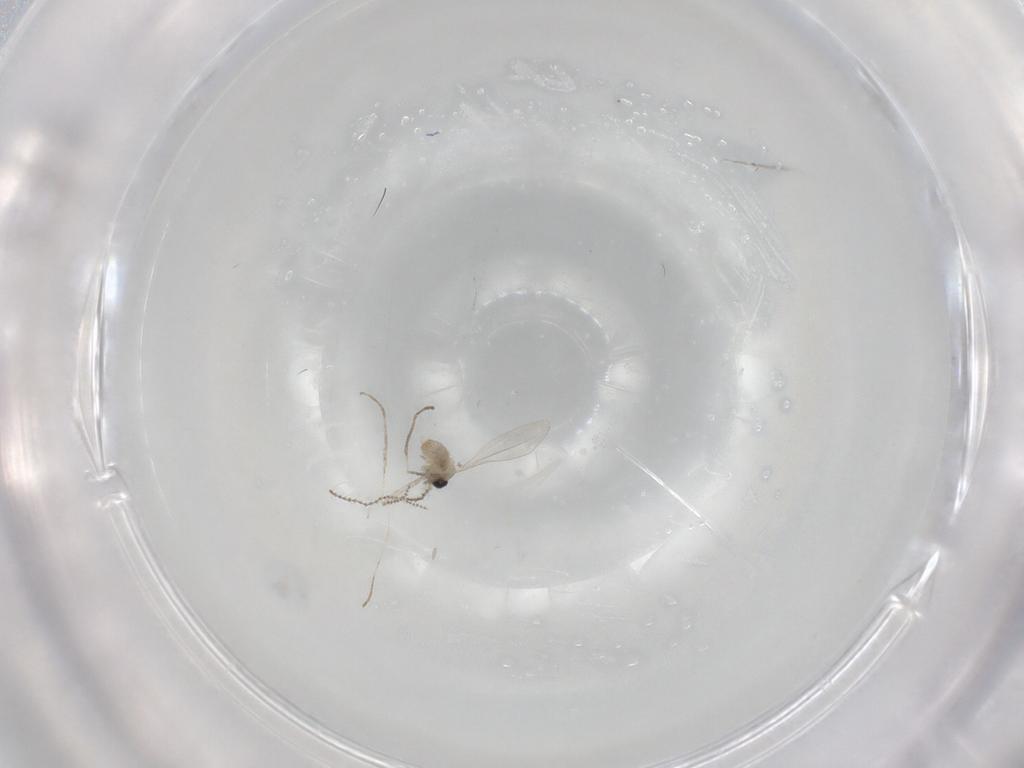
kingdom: Animalia
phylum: Arthropoda
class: Insecta
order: Diptera
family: Cecidomyiidae
